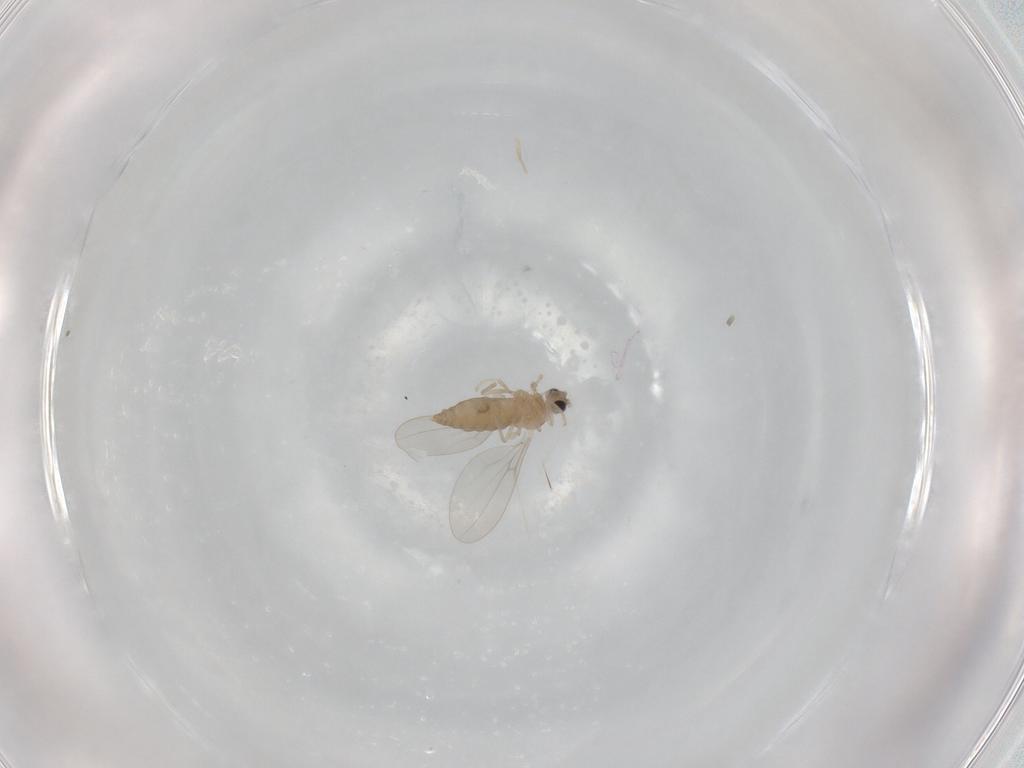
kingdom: Animalia
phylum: Arthropoda
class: Insecta
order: Diptera
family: Cecidomyiidae
